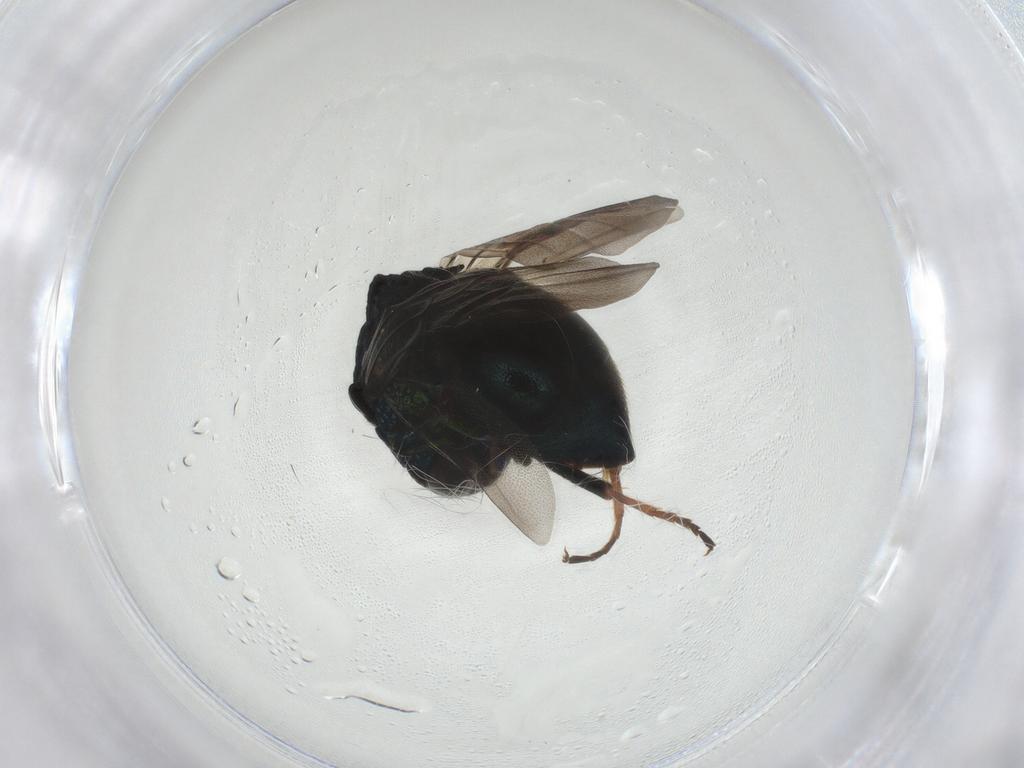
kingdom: Animalia
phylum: Arthropoda
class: Insecta
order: Hymenoptera
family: Chrysididae
